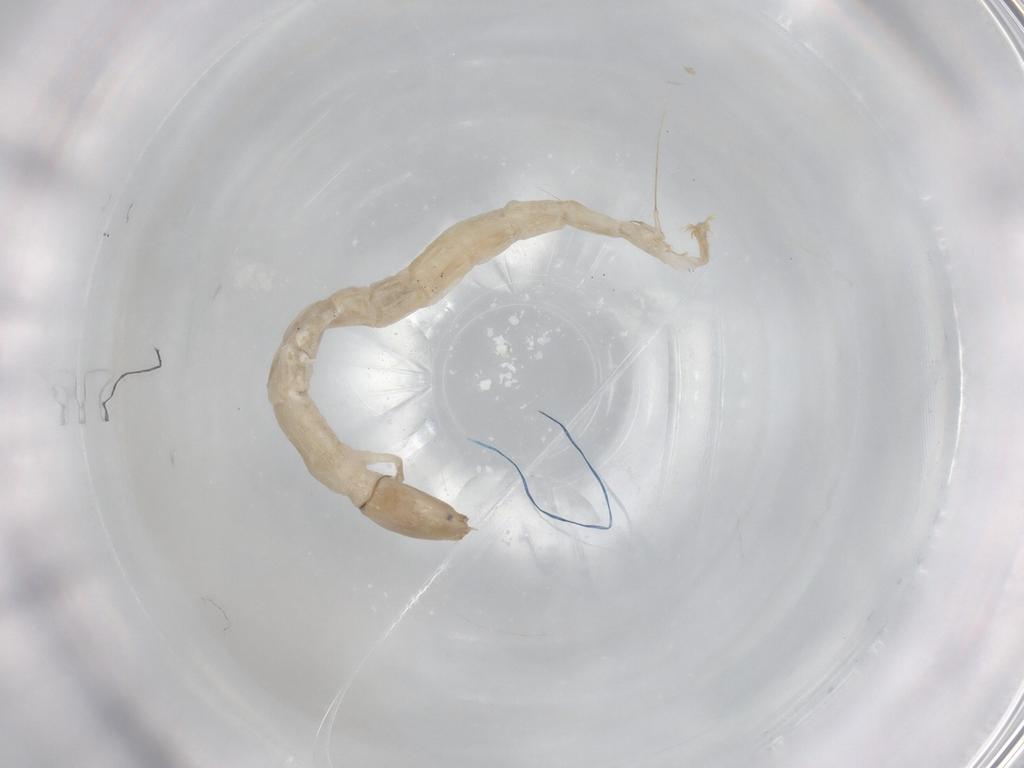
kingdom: Animalia
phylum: Arthropoda
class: Insecta
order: Diptera
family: Chironomidae
